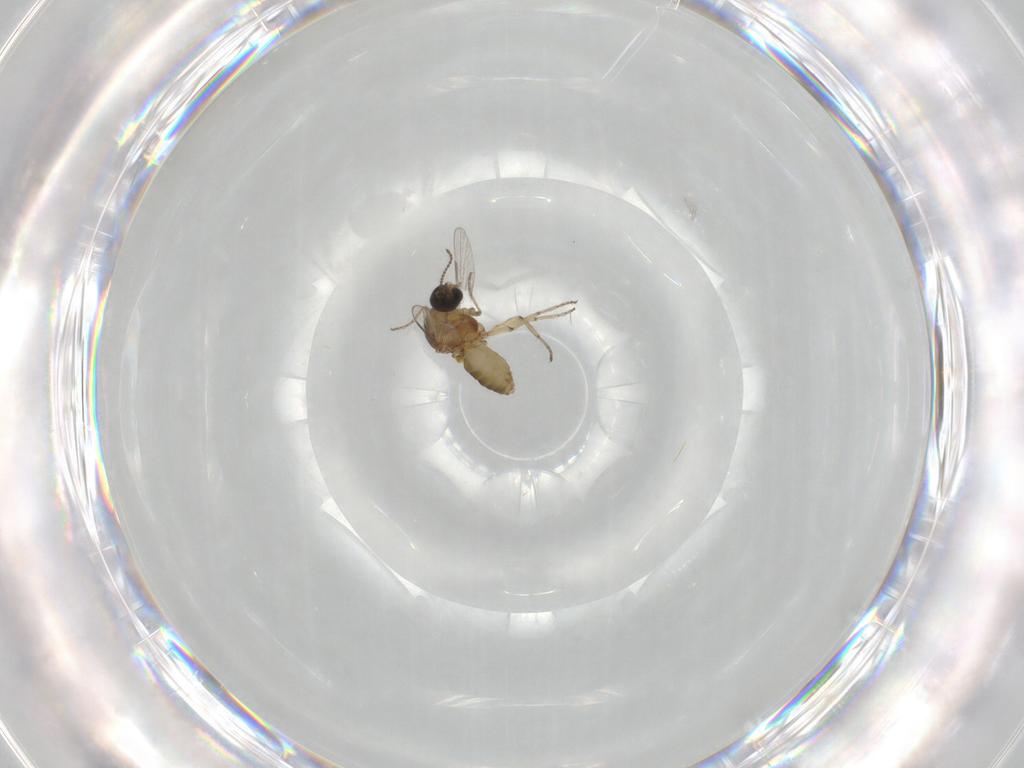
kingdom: Animalia
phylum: Arthropoda
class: Insecta
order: Diptera
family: Ceratopogonidae
